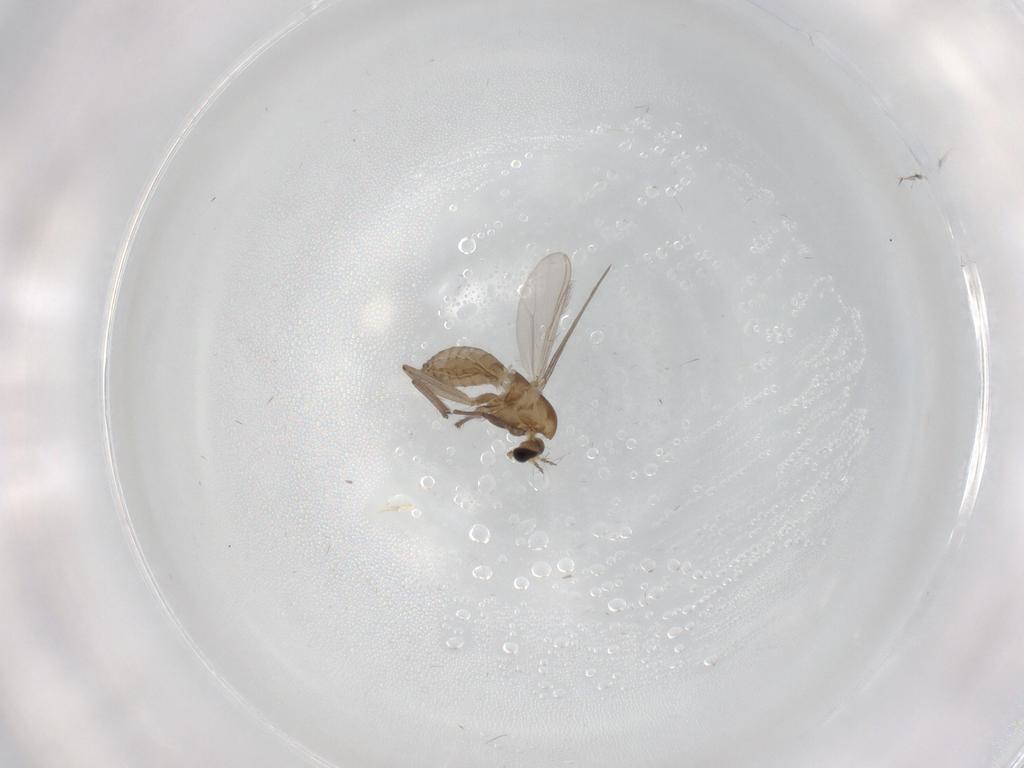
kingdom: Animalia
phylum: Arthropoda
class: Insecta
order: Diptera
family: Chironomidae
